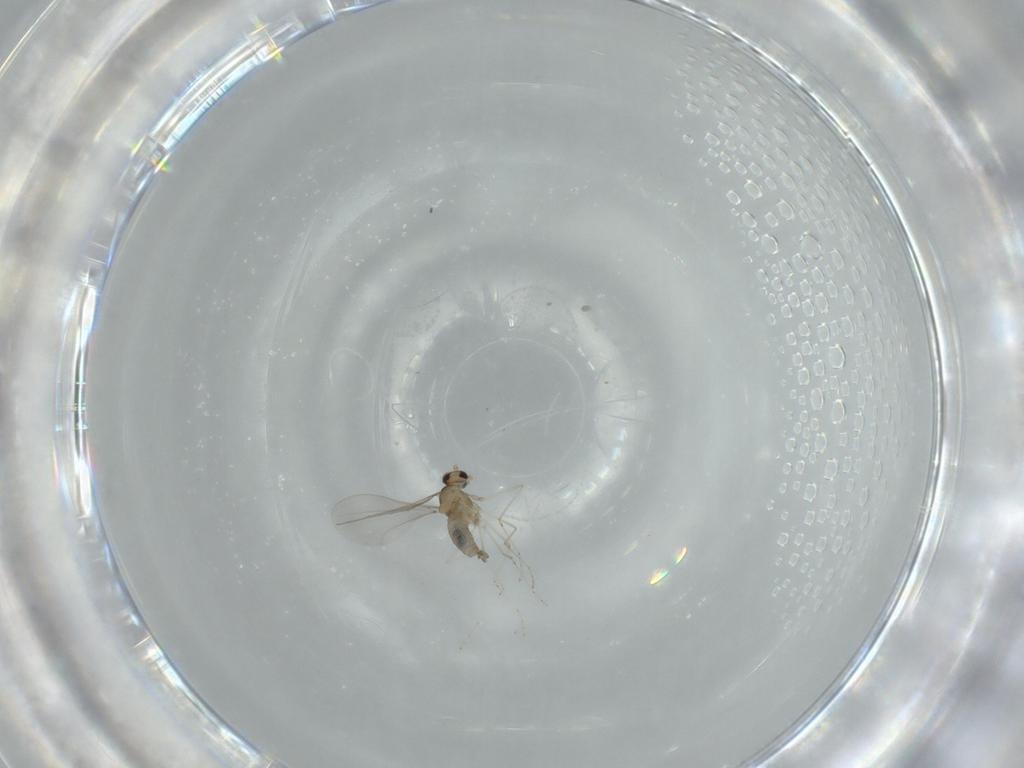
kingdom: Animalia
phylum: Arthropoda
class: Insecta
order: Diptera
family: Cecidomyiidae
